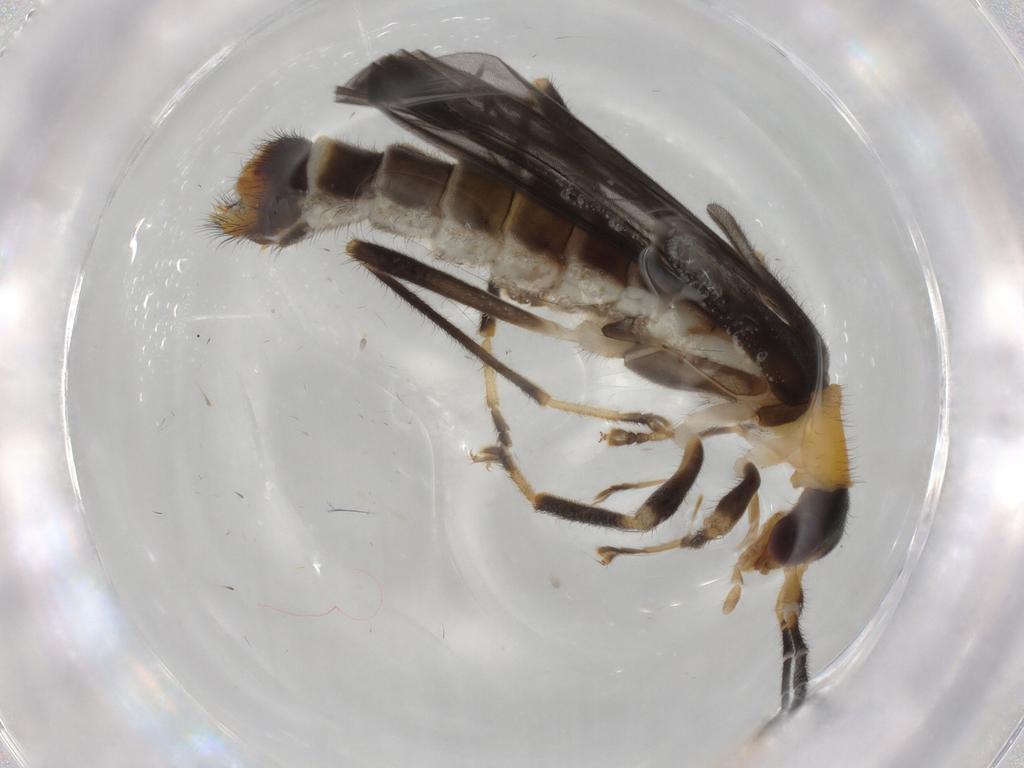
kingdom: Animalia
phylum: Arthropoda
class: Insecta
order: Coleoptera
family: Cantharidae
